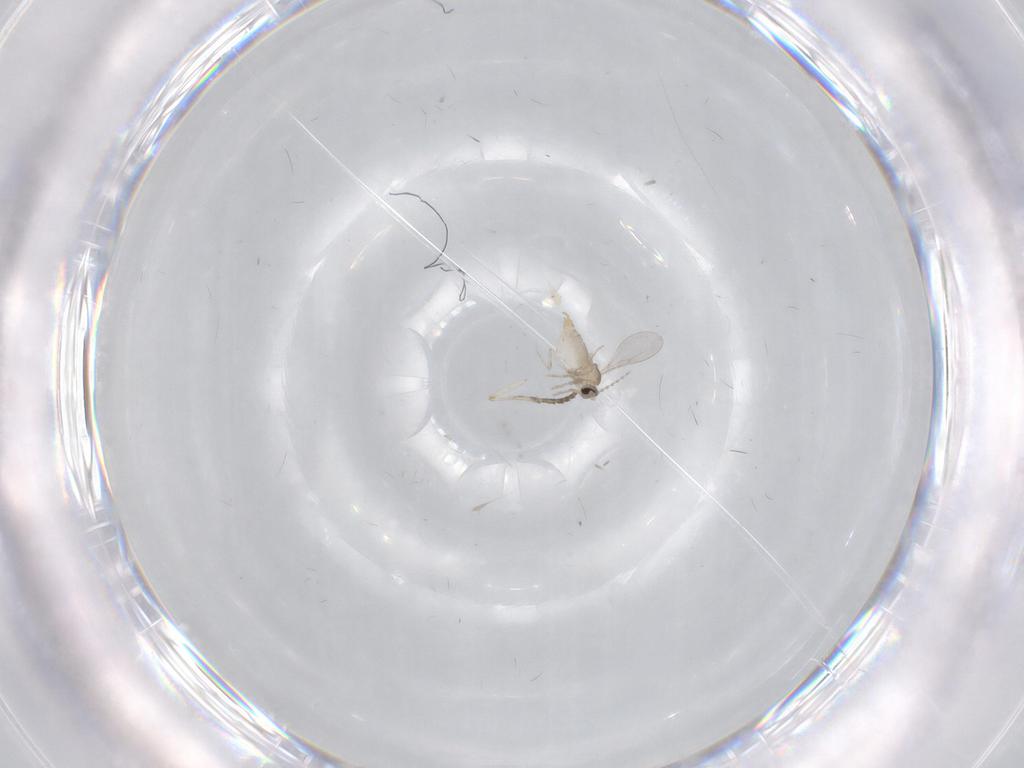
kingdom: Animalia
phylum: Arthropoda
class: Insecta
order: Diptera
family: Cecidomyiidae
